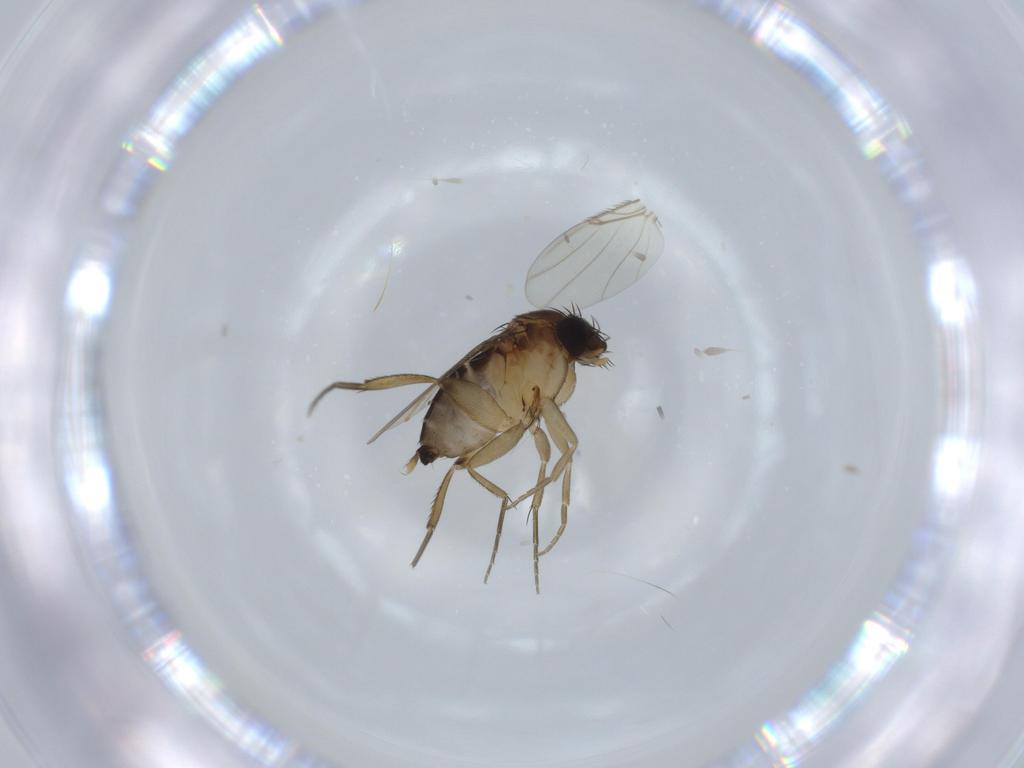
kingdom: Animalia
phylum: Arthropoda
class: Insecta
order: Diptera
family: Phoridae
